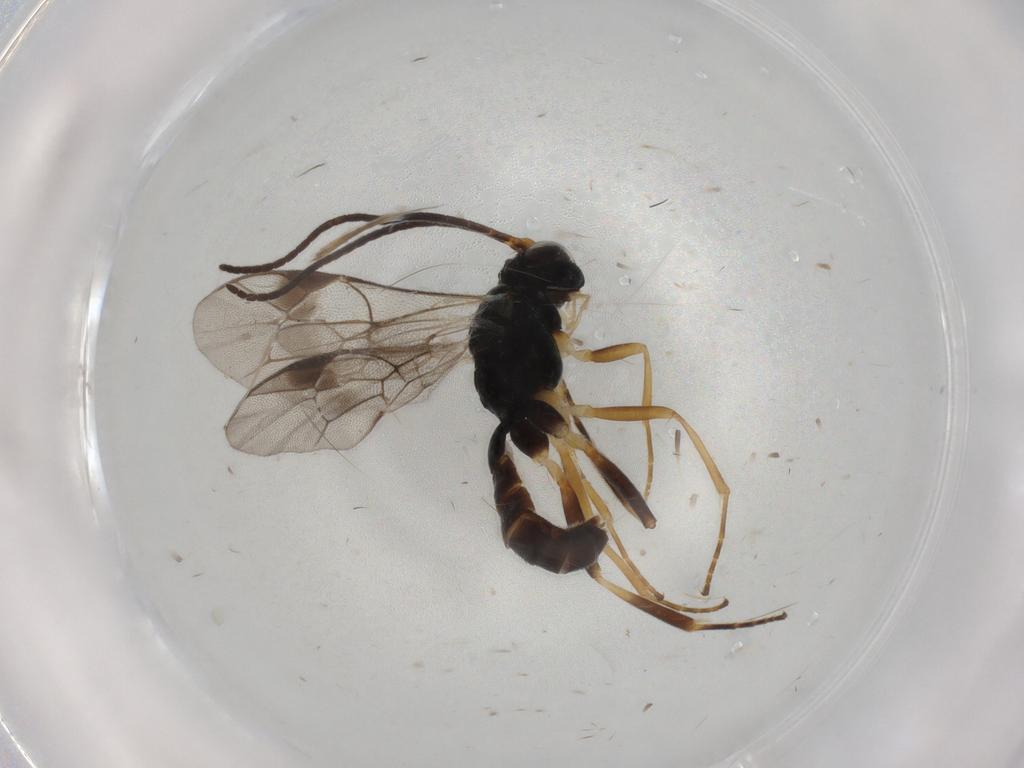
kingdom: Animalia
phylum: Arthropoda
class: Insecta
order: Hymenoptera
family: Ichneumonidae
